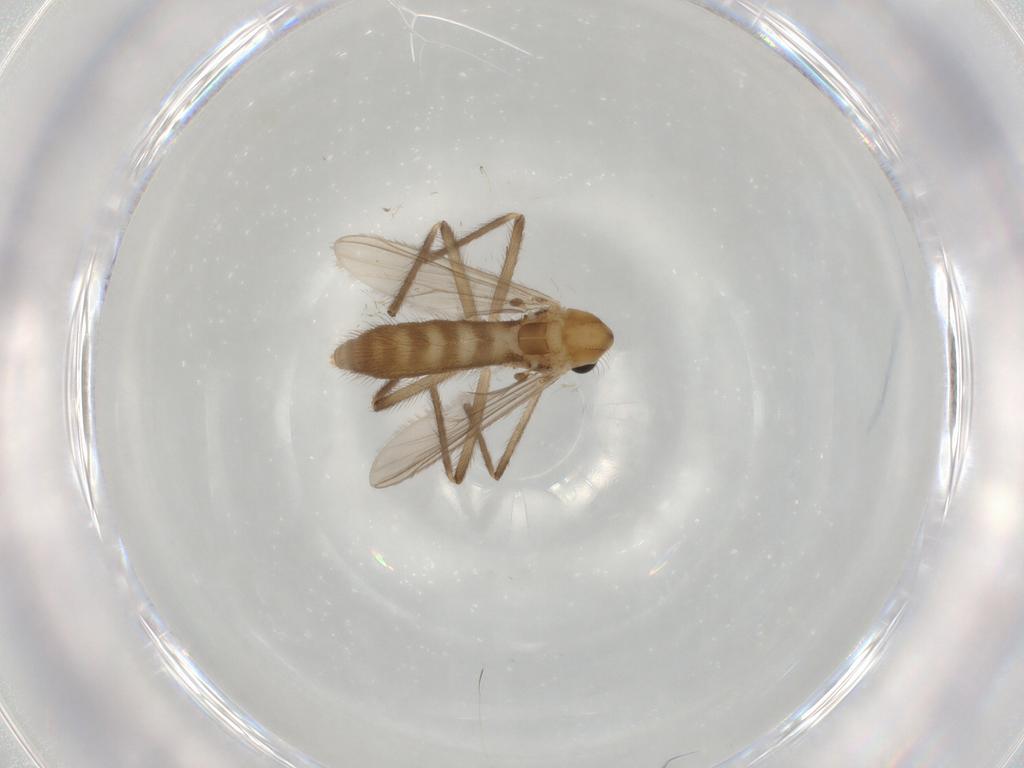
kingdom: Animalia
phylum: Arthropoda
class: Insecta
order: Diptera
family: Chironomidae
